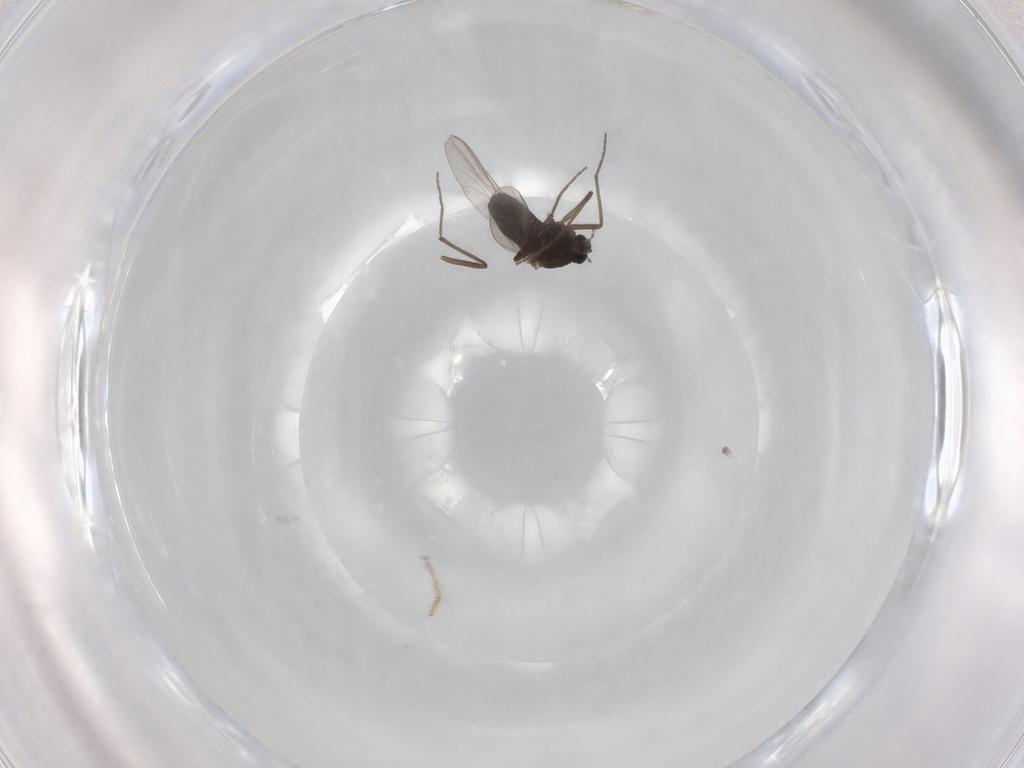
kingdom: Animalia
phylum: Arthropoda
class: Insecta
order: Diptera
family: Chironomidae
